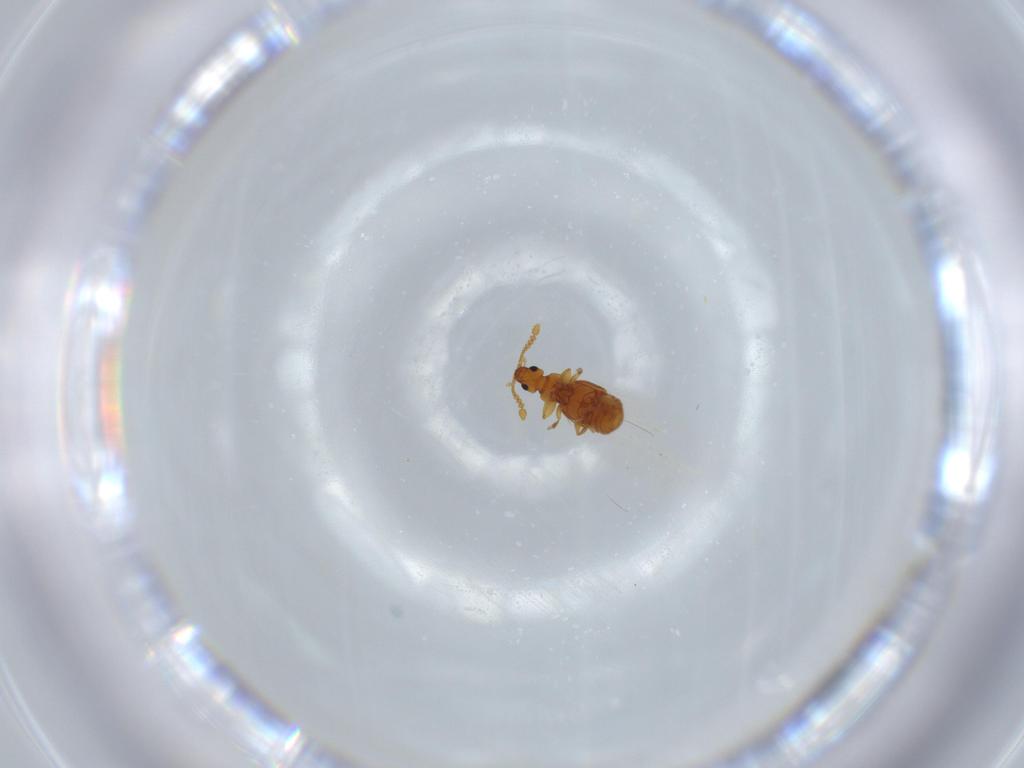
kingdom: Animalia
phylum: Arthropoda
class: Insecta
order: Coleoptera
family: Staphylinidae
